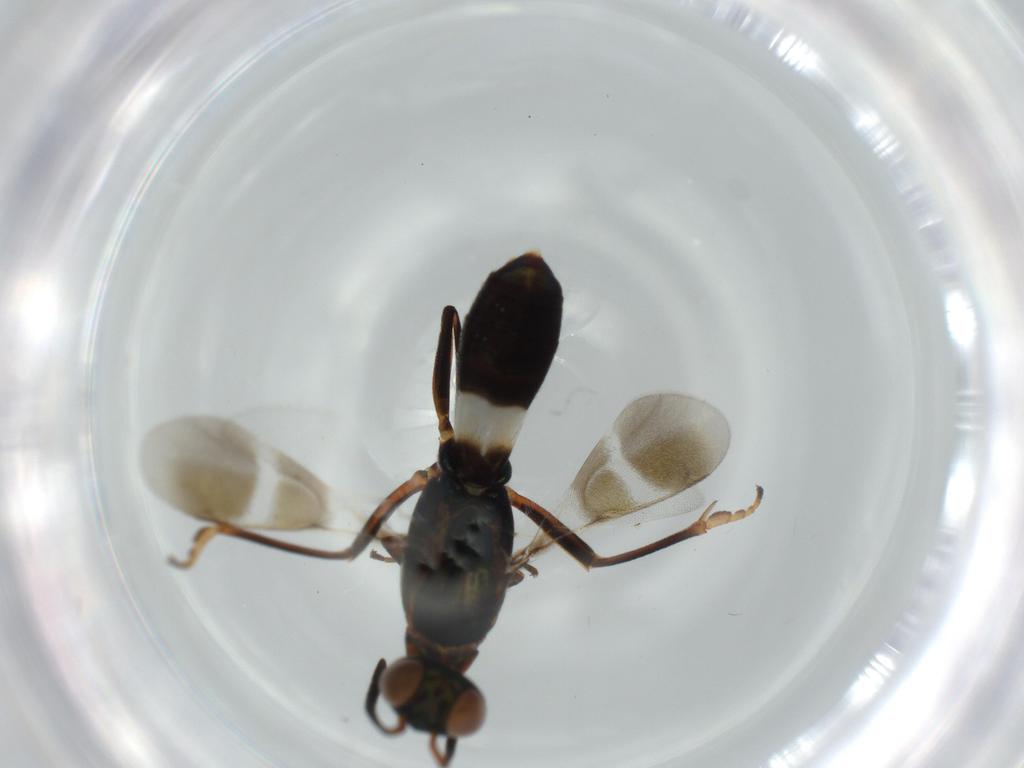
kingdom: Animalia
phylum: Arthropoda
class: Insecta
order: Hymenoptera
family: Eupelmidae
